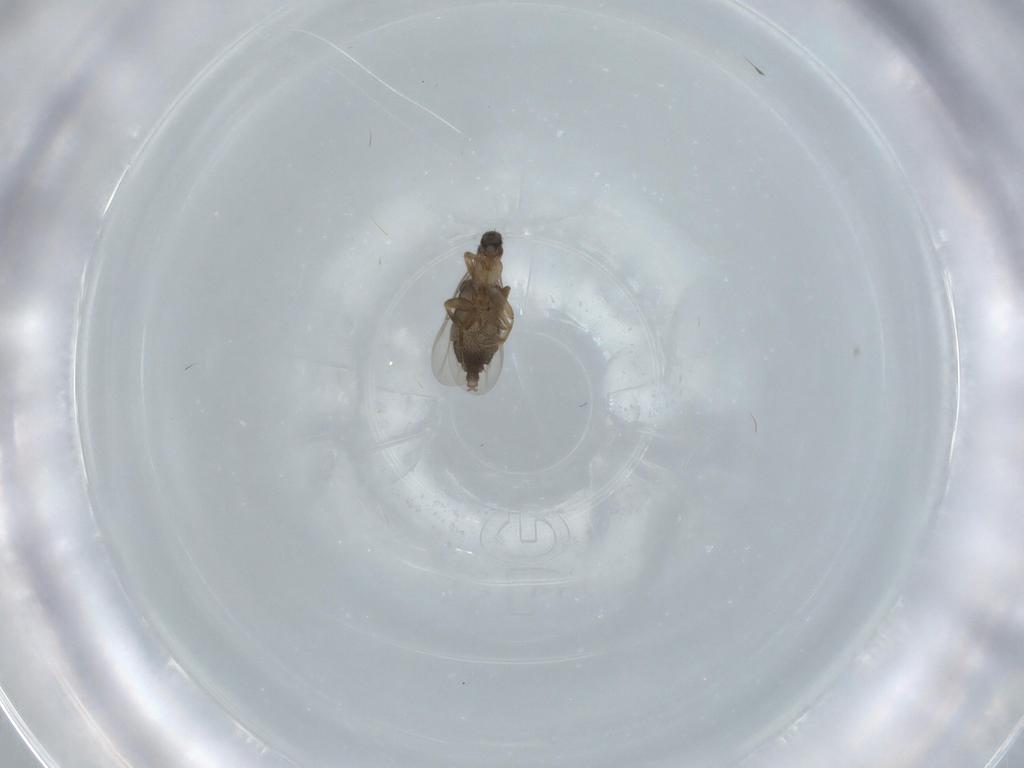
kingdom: Animalia
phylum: Arthropoda
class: Insecta
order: Diptera
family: Phoridae
